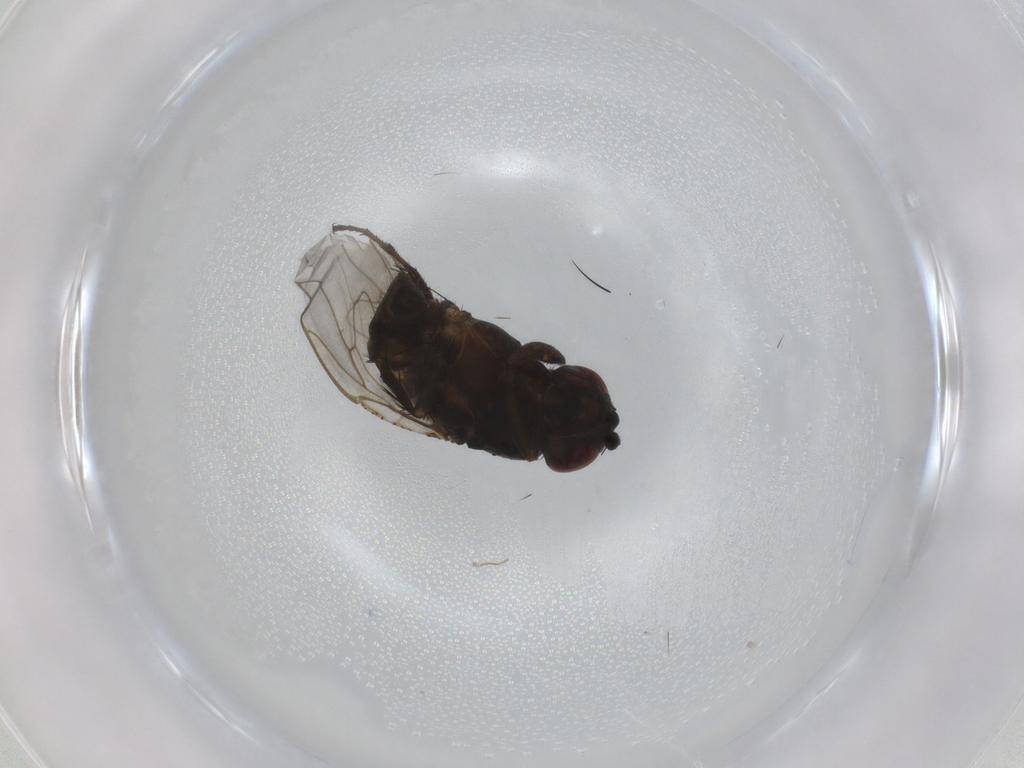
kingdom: Animalia
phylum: Arthropoda
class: Insecta
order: Diptera
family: Sphaeroceridae
